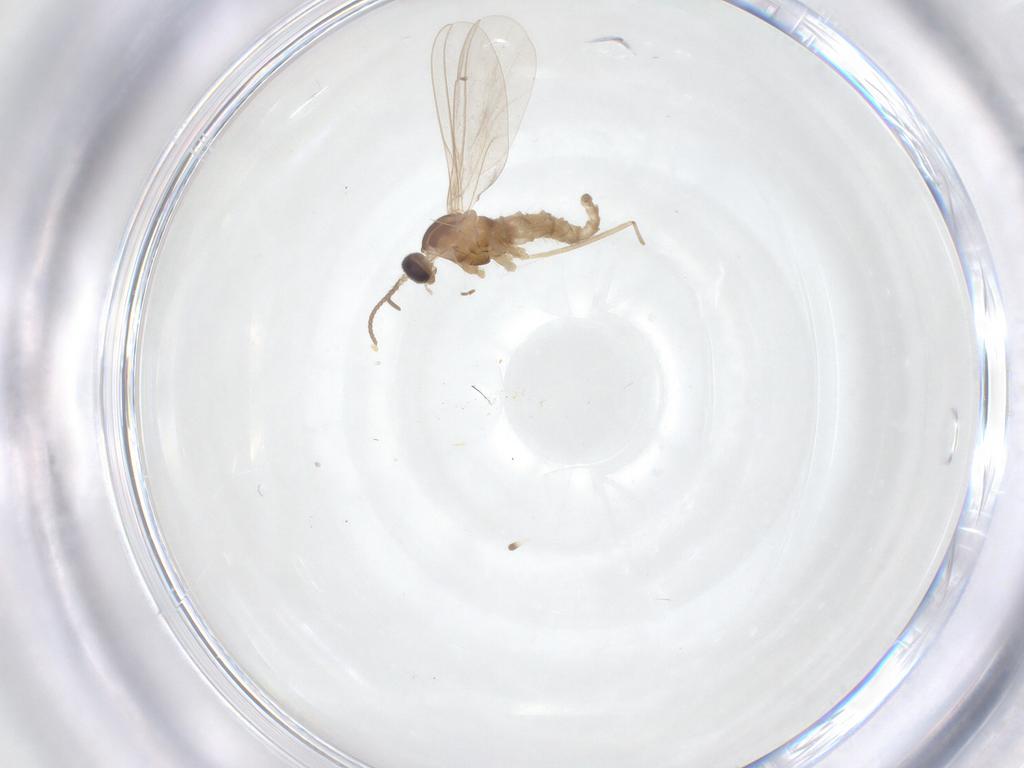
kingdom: Animalia
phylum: Arthropoda
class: Insecta
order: Diptera
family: Cecidomyiidae
